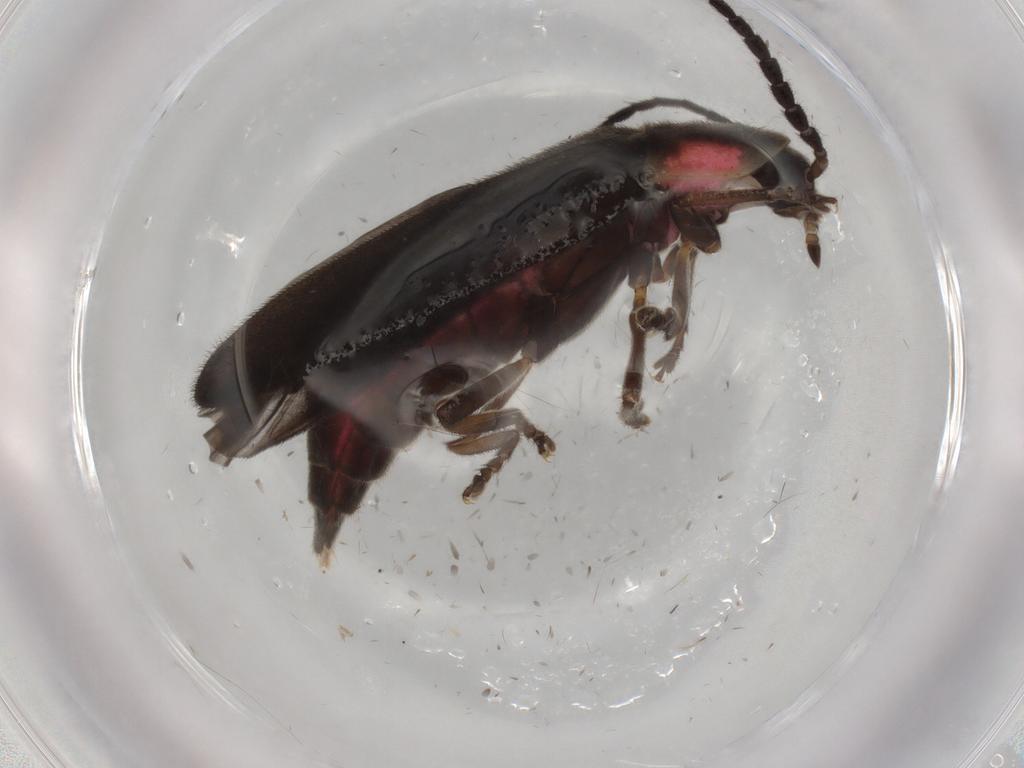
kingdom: Animalia
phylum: Arthropoda
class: Insecta
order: Coleoptera
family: Lampyridae
